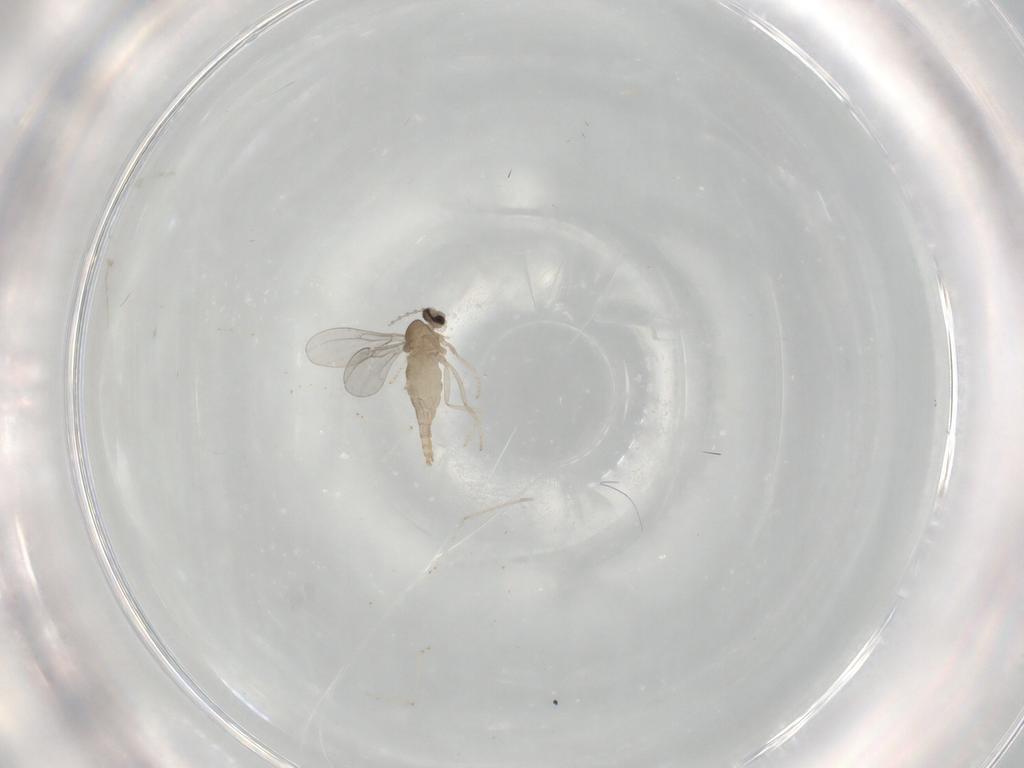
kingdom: Animalia
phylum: Arthropoda
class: Insecta
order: Diptera
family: Cecidomyiidae
